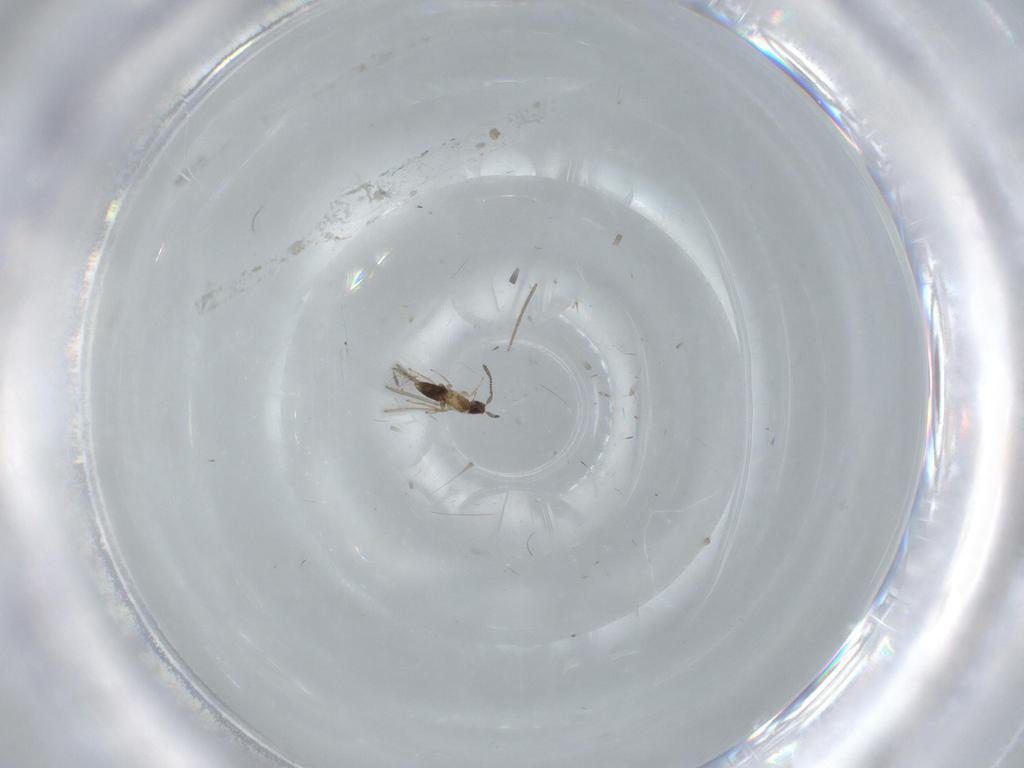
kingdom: Animalia
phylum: Arthropoda
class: Insecta
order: Hymenoptera
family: Mymaridae
